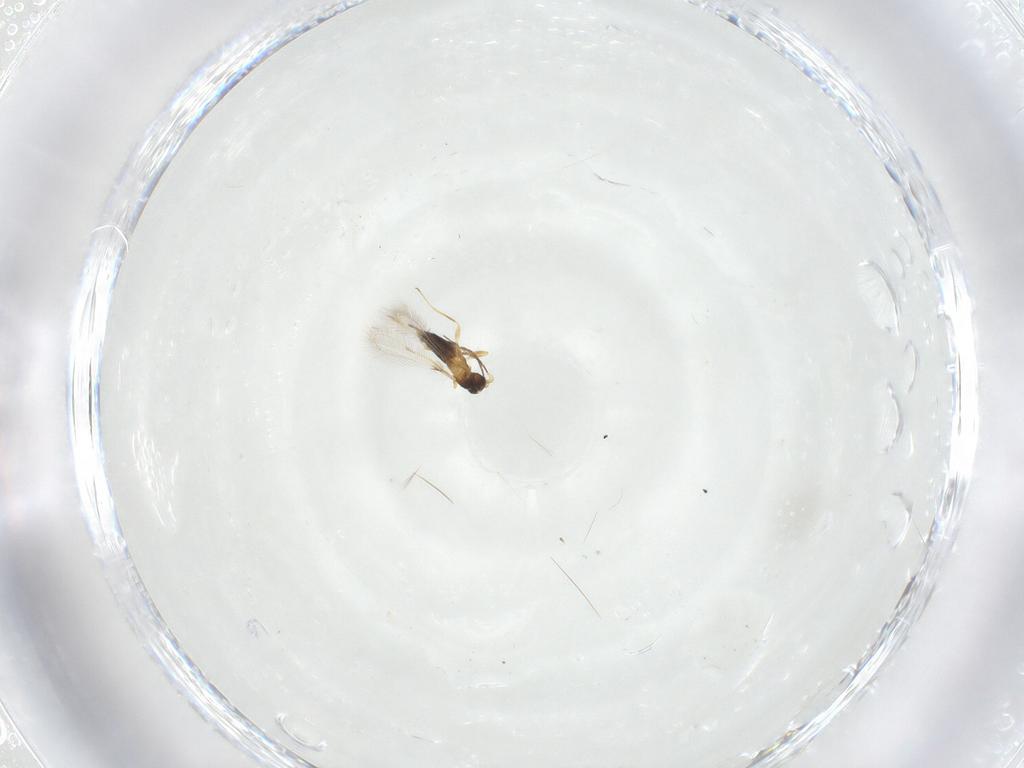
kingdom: Animalia
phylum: Arthropoda
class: Insecta
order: Hymenoptera
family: Mymaridae
